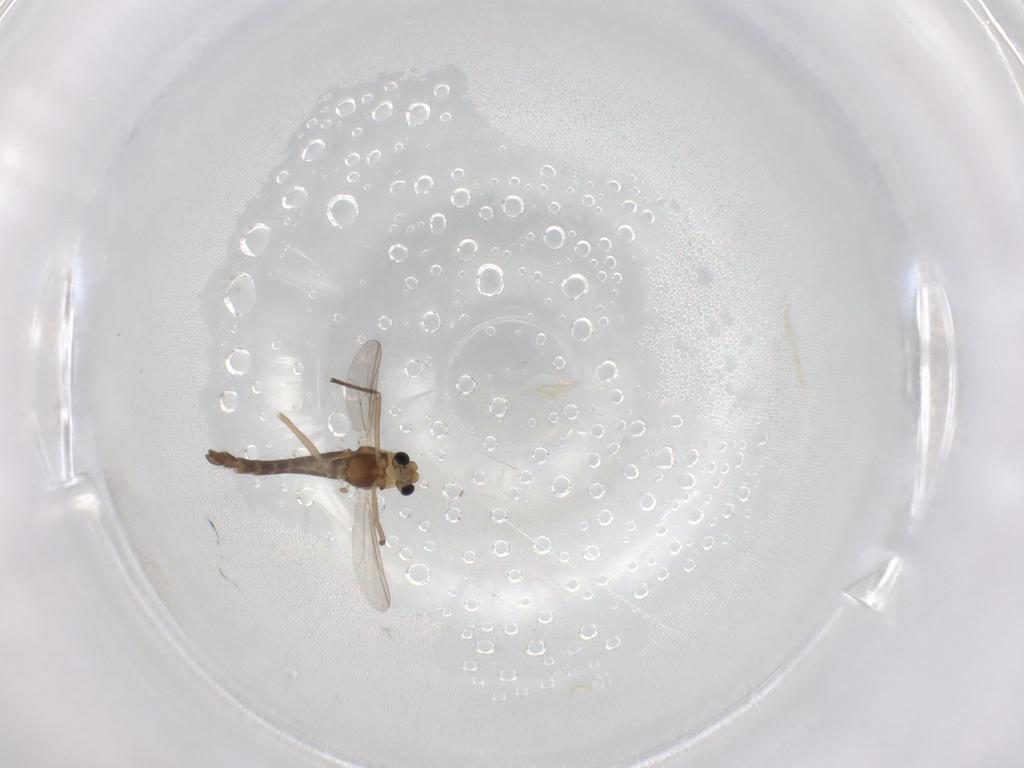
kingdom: Animalia
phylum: Arthropoda
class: Insecta
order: Diptera
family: Chironomidae
